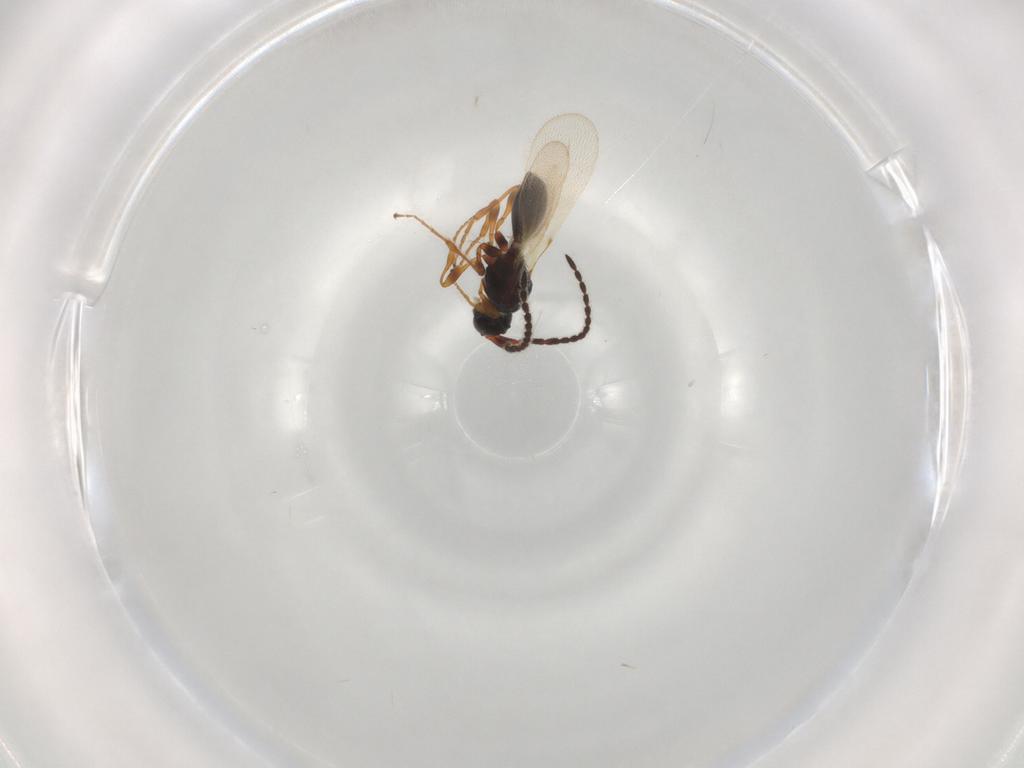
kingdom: Animalia
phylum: Arthropoda
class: Insecta
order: Hymenoptera
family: Diapriidae
